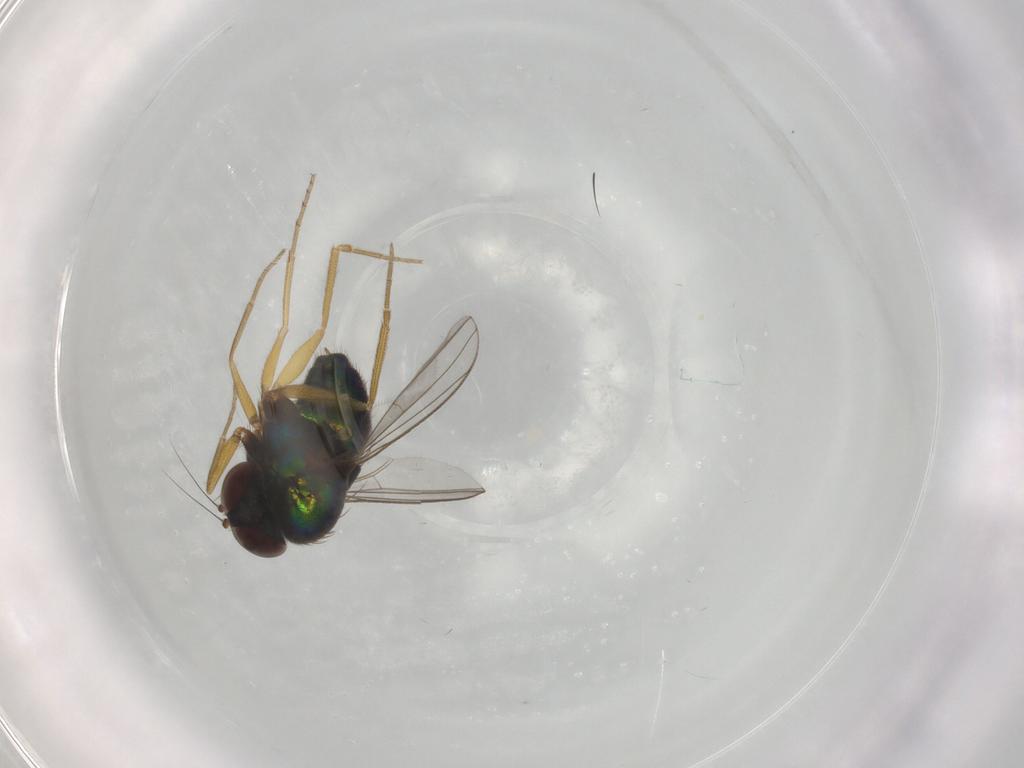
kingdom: Animalia
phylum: Arthropoda
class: Insecta
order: Diptera
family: Dolichopodidae
